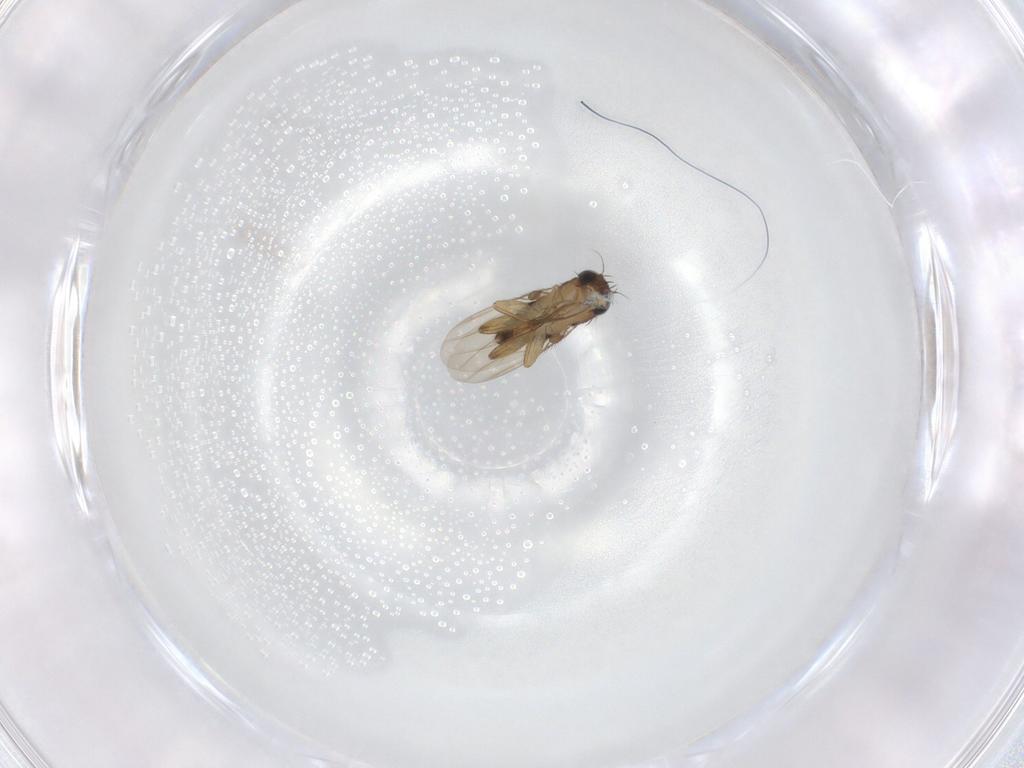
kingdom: Animalia
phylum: Arthropoda
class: Insecta
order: Diptera
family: Phoridae
